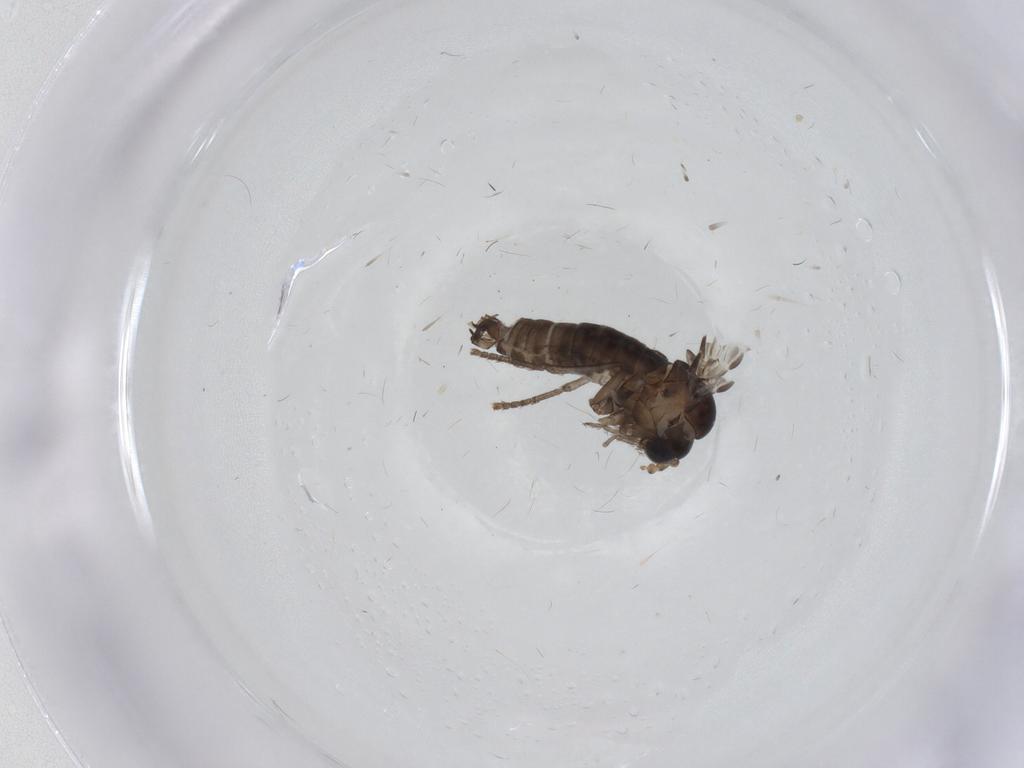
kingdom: Animalia
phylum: Arthropoda
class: Insecta
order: Diptera
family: Psychodidae
